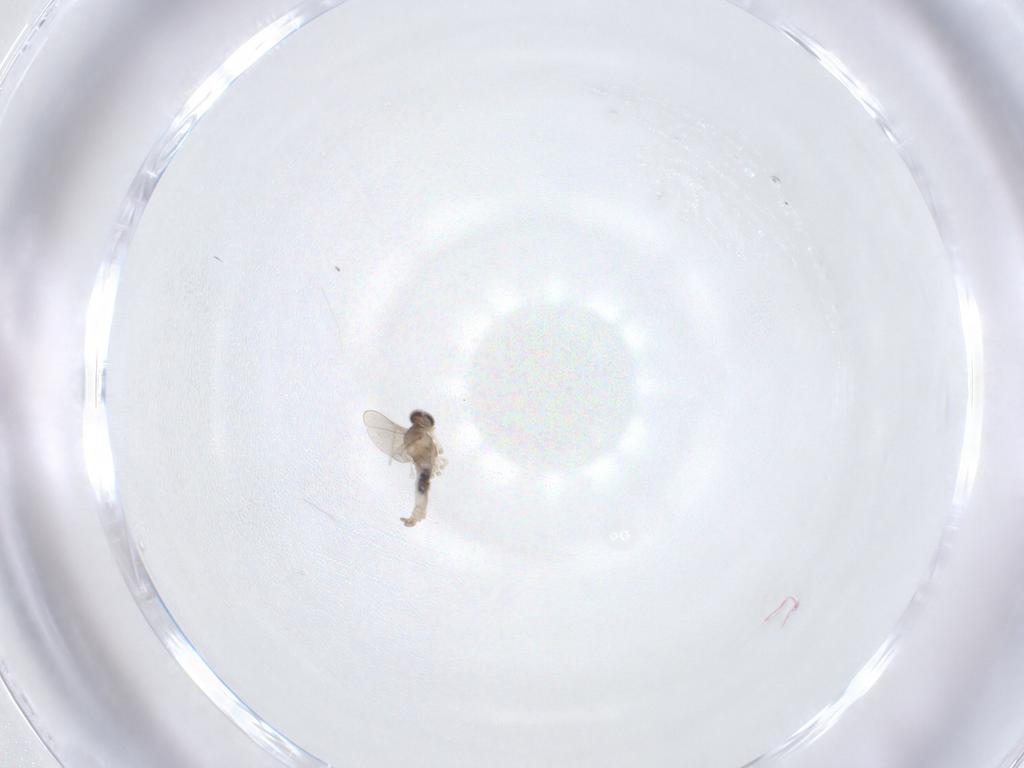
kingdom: Animalia
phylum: Arthropoda
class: Insecta
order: Diptera
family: Cecidomyiidae
